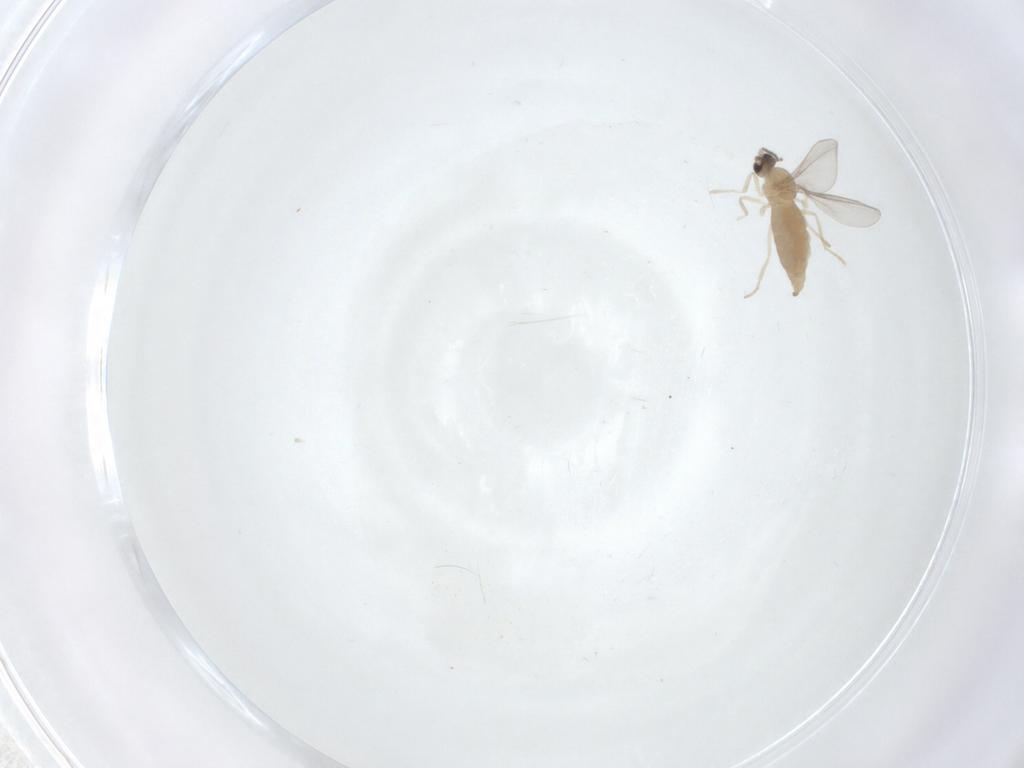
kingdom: Animalia
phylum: Arthropoda
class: Insecta
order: Diptera
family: Cecidomyiidae
